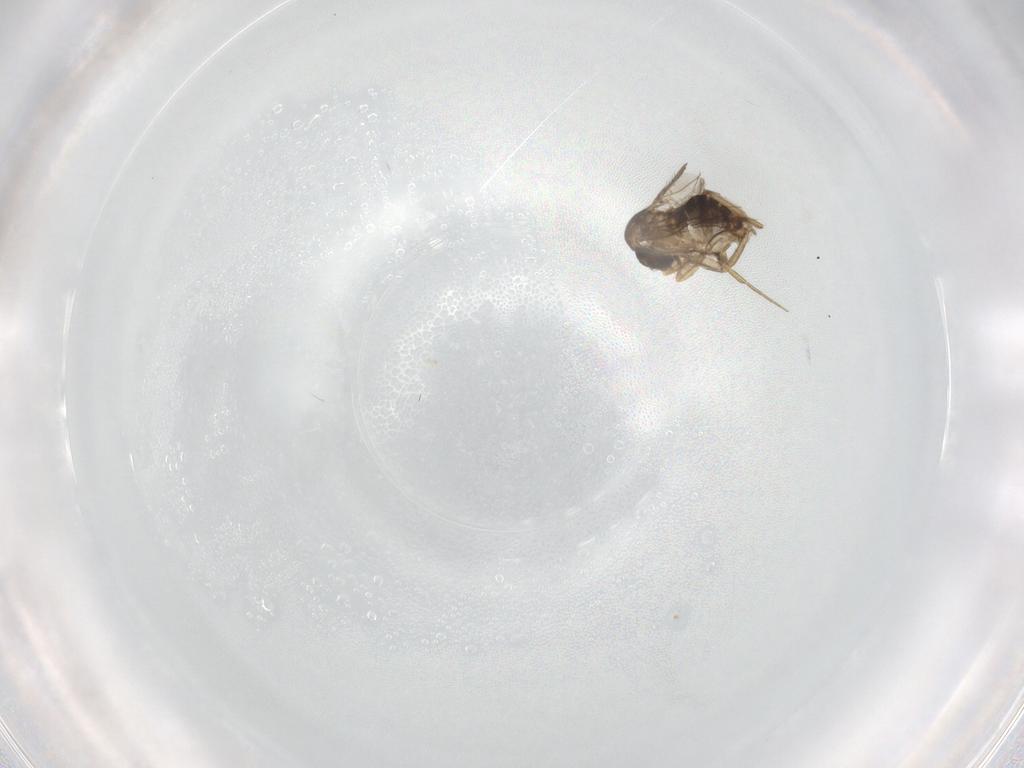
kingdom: Animalia
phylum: Arthropoda
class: Insecta
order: Diptera
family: Phoridae
